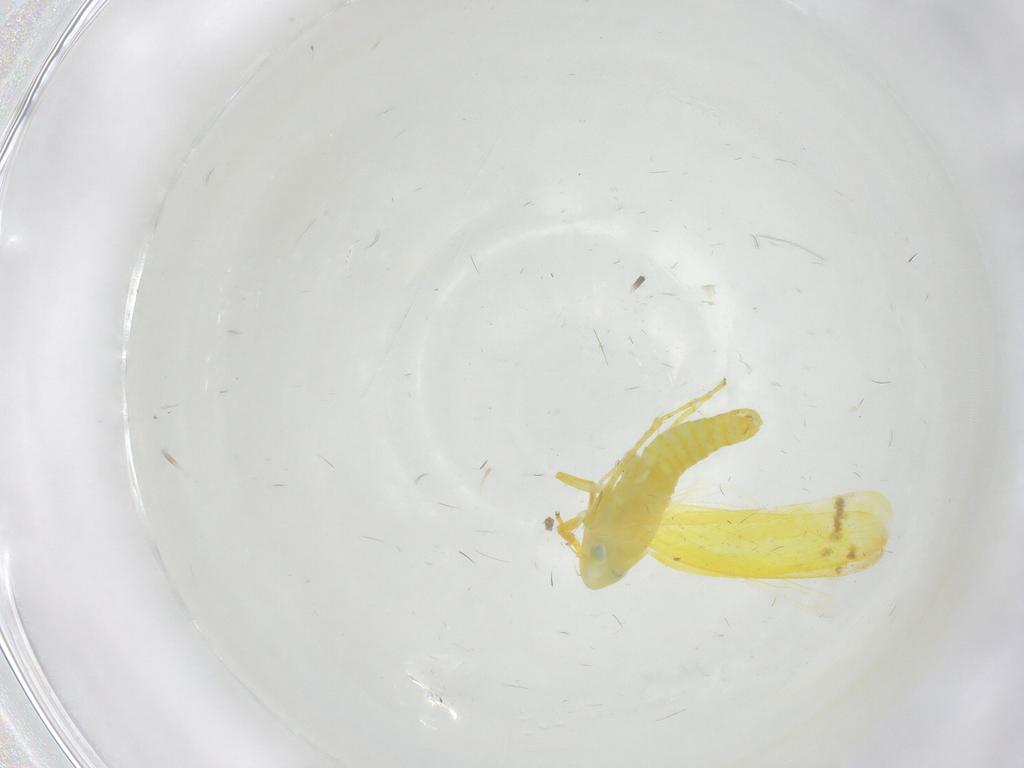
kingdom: Animalia
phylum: Arthropoda
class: Insecta
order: Hemiptera
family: Cicadellidae
